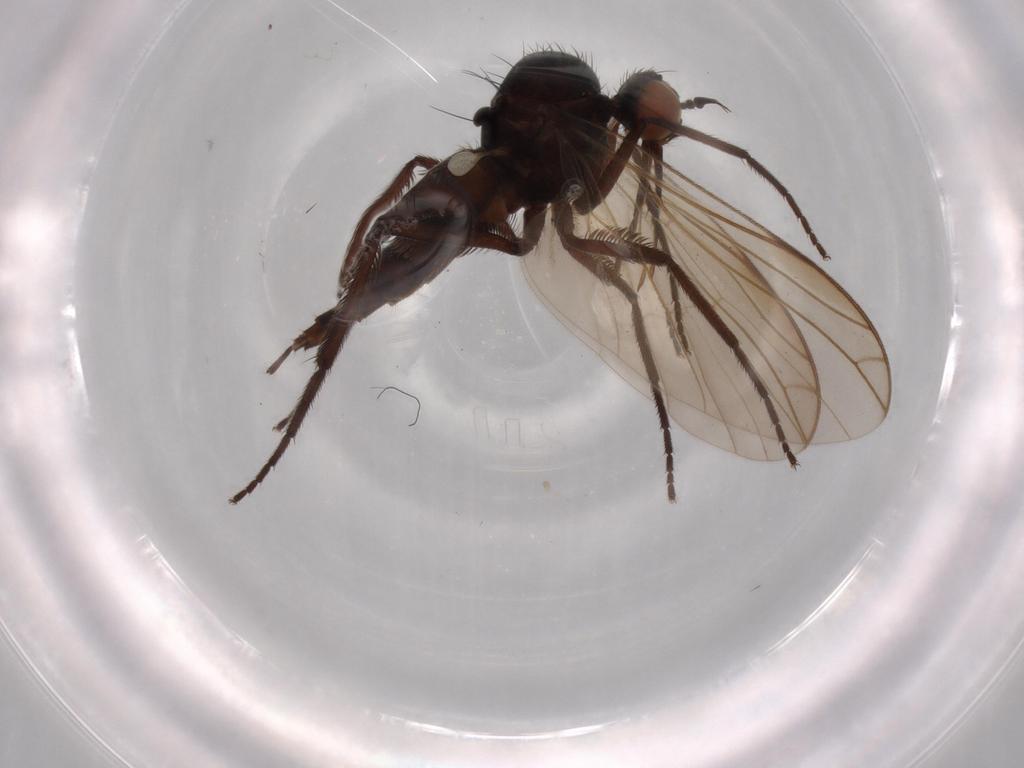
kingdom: Animalia
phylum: Arthropoda
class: Insecta
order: Diptera
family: Empididae
